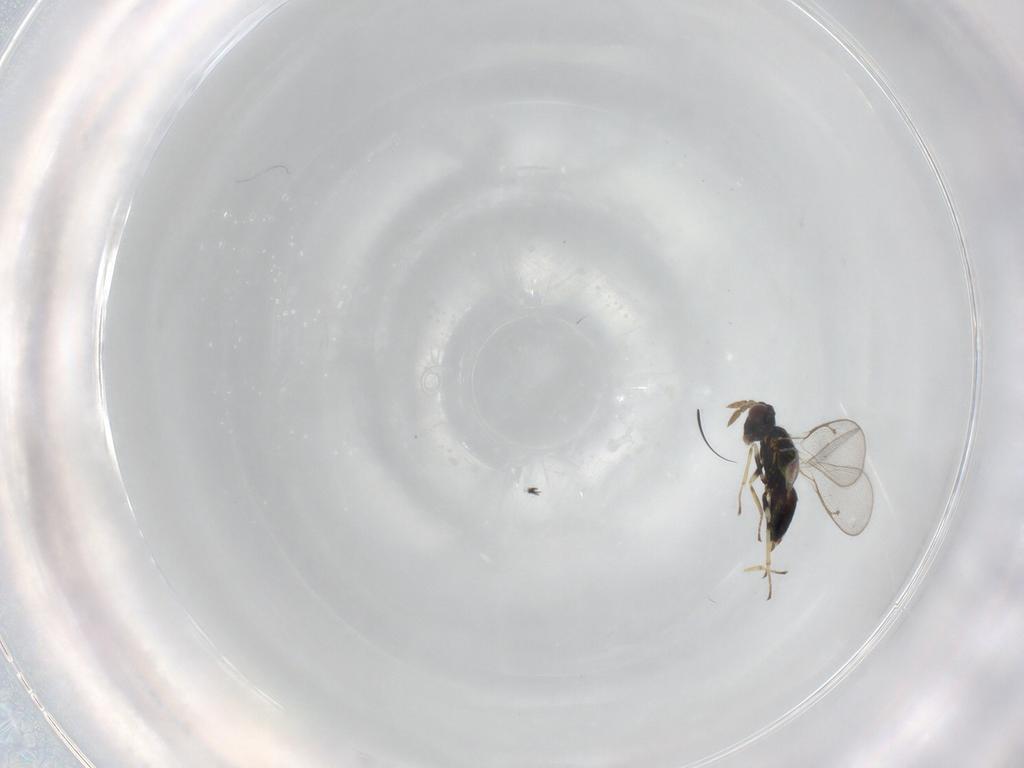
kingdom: Animalia
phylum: Arthropoda
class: Insecta
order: Hymenoptera
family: Eulophidae
